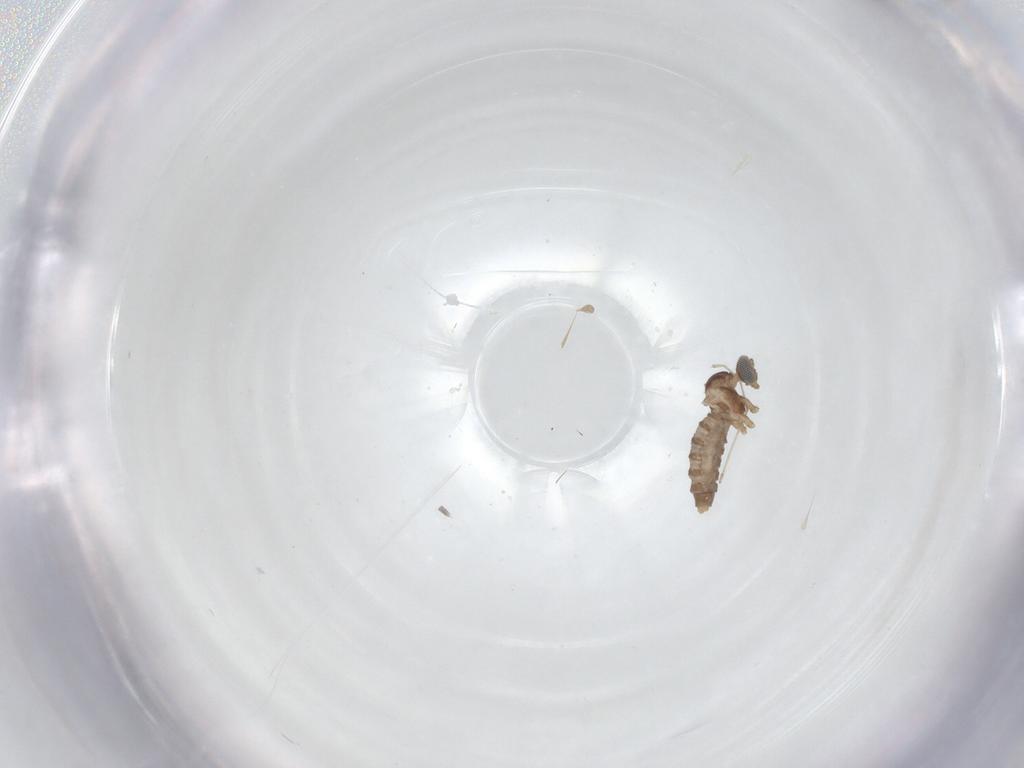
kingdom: Animalia
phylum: Arthropoda
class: Insecta
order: Diptera
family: Cecidomyiidae
